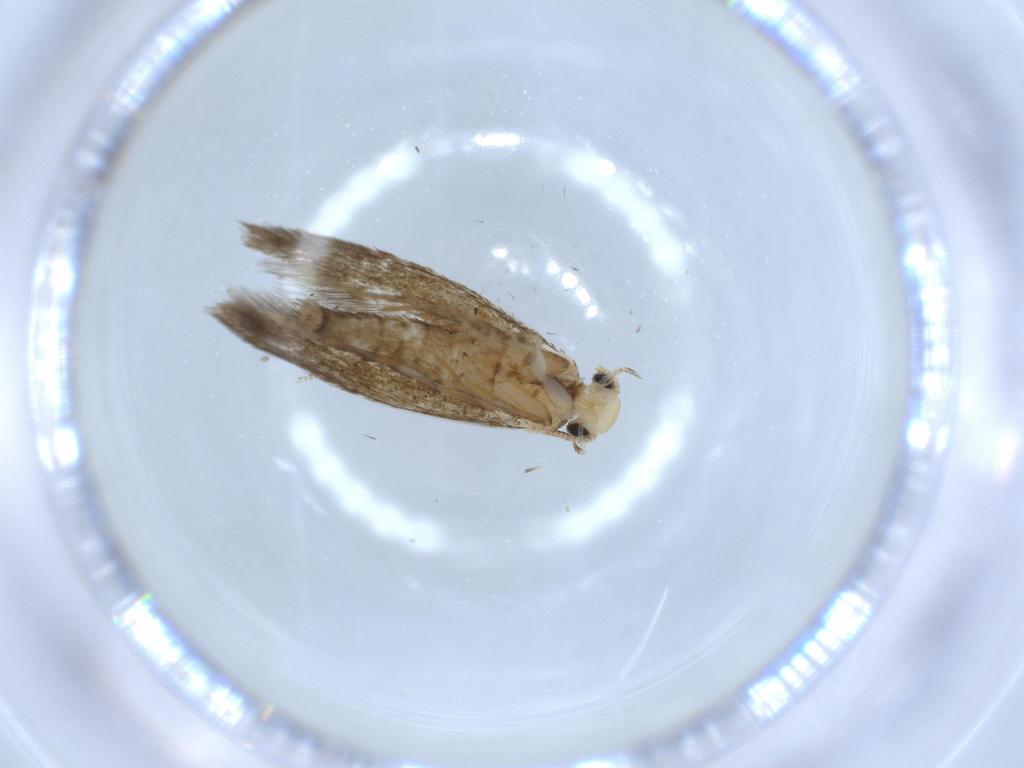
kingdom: Animalia
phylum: Arthropoda
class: Insecta
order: Lepidoptera
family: Tineidae
